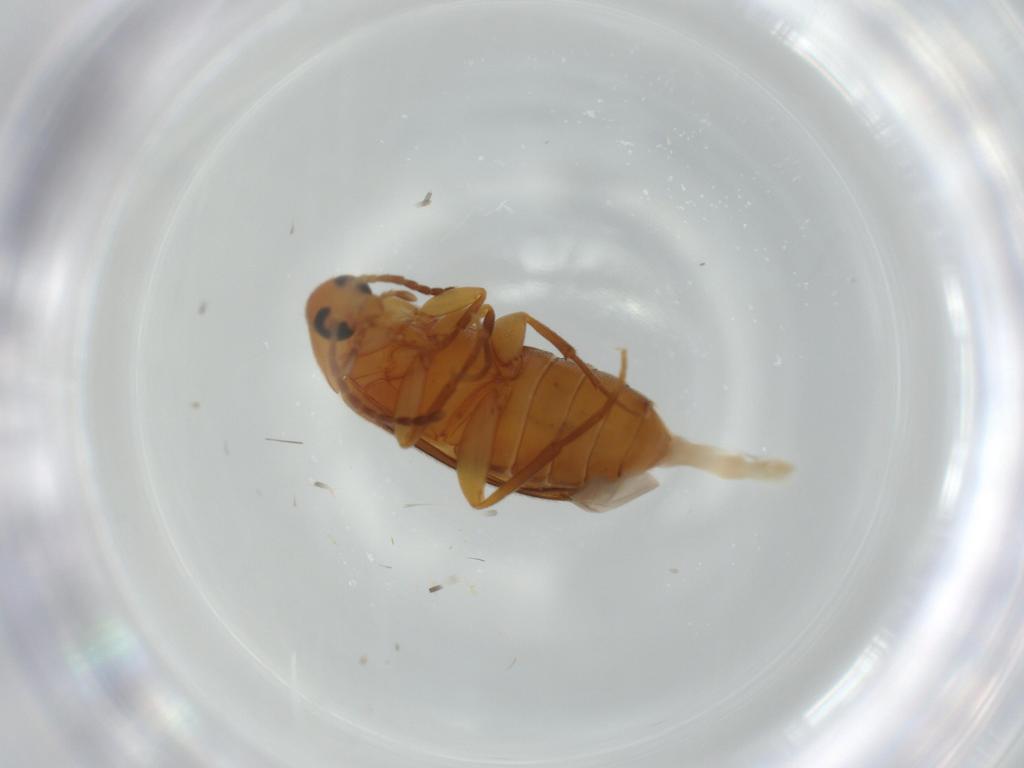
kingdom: Animalia
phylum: Arthropoda
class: Insecta
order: Coleoptera
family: Scraptiidae
